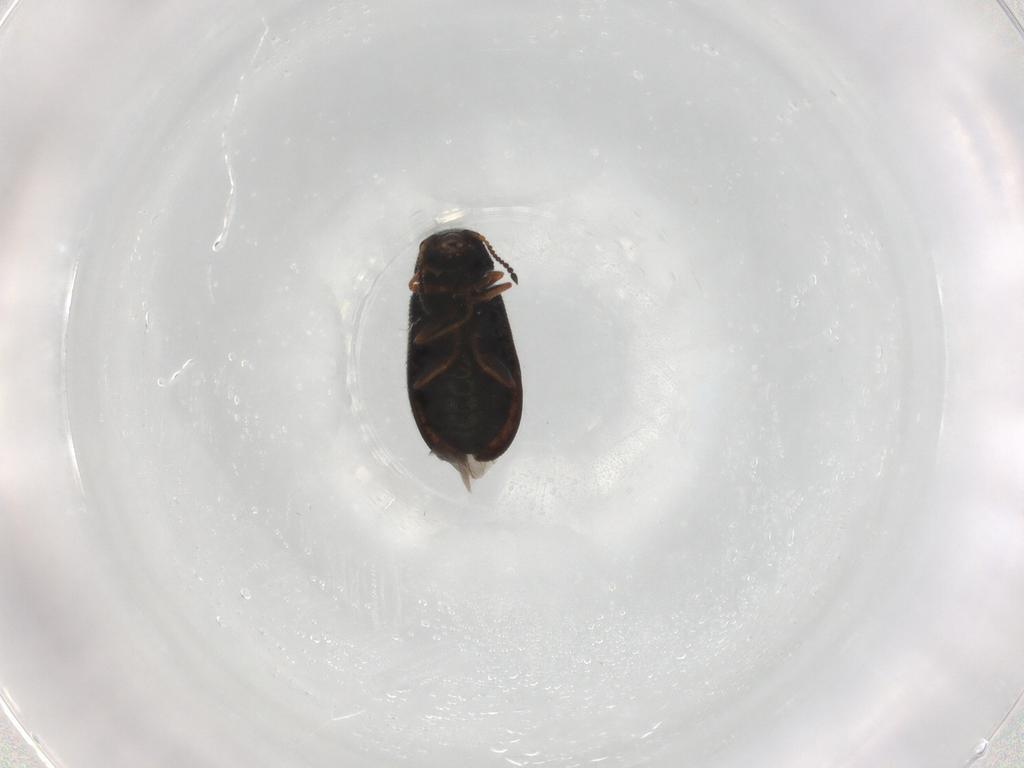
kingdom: Animalia
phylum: Arthropoda
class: Insecta
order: Coleoptera
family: Melyridae
